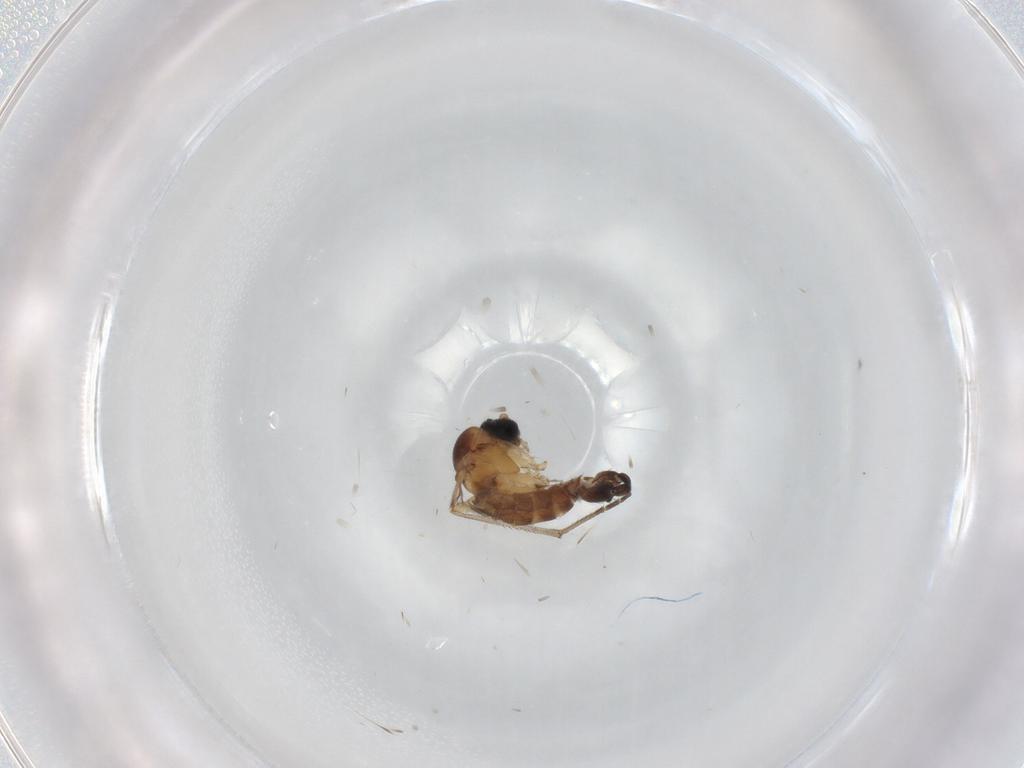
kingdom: Animalia
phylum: Arthropoda
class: Insecta
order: Diptera
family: Sciaridae
